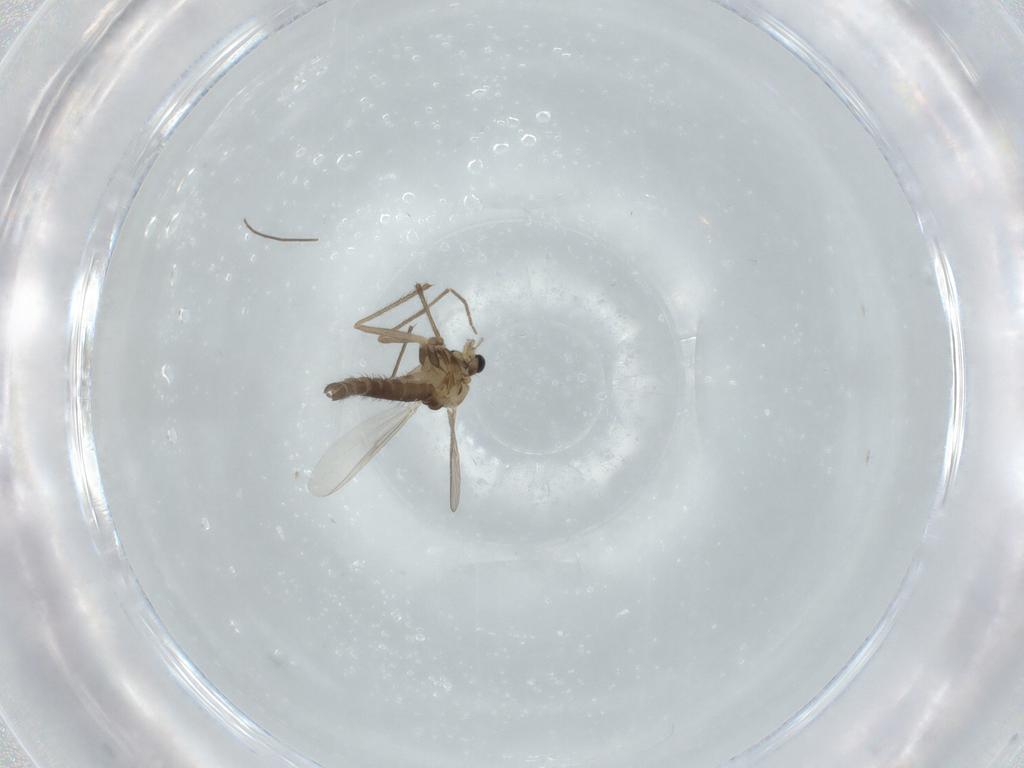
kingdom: Animalia
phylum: Arthropoda
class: Insecta
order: Diptera
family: Chironomidae
